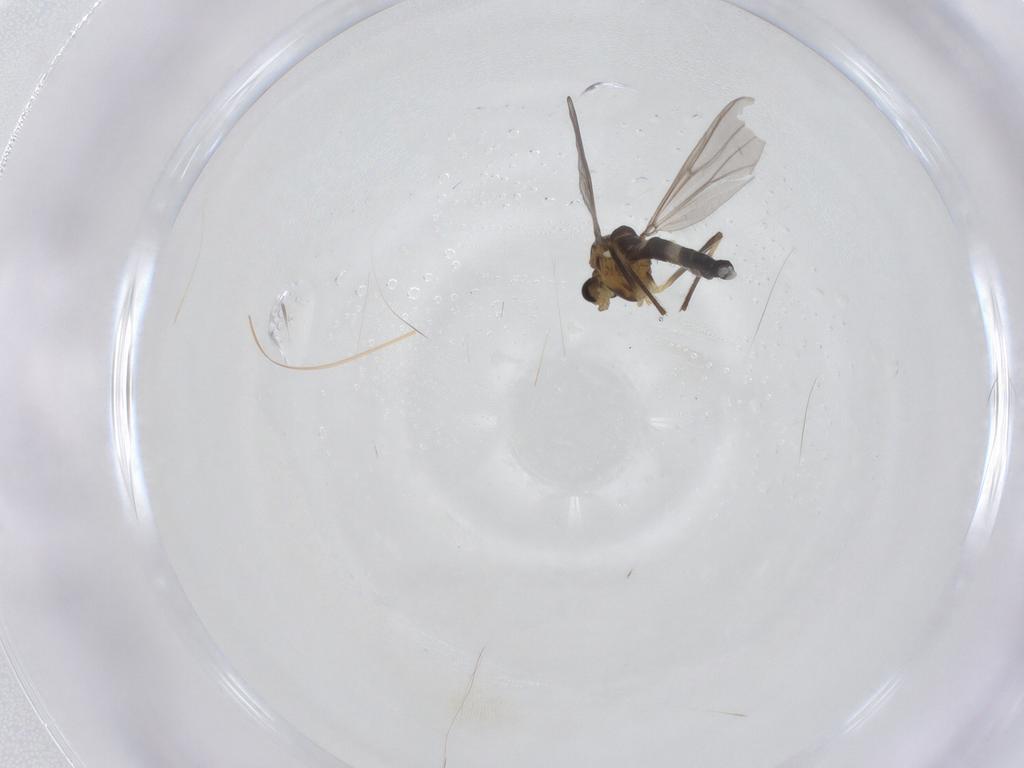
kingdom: Animalia
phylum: Arthropoda
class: Insecta
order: Diptera
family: Chironomidae
